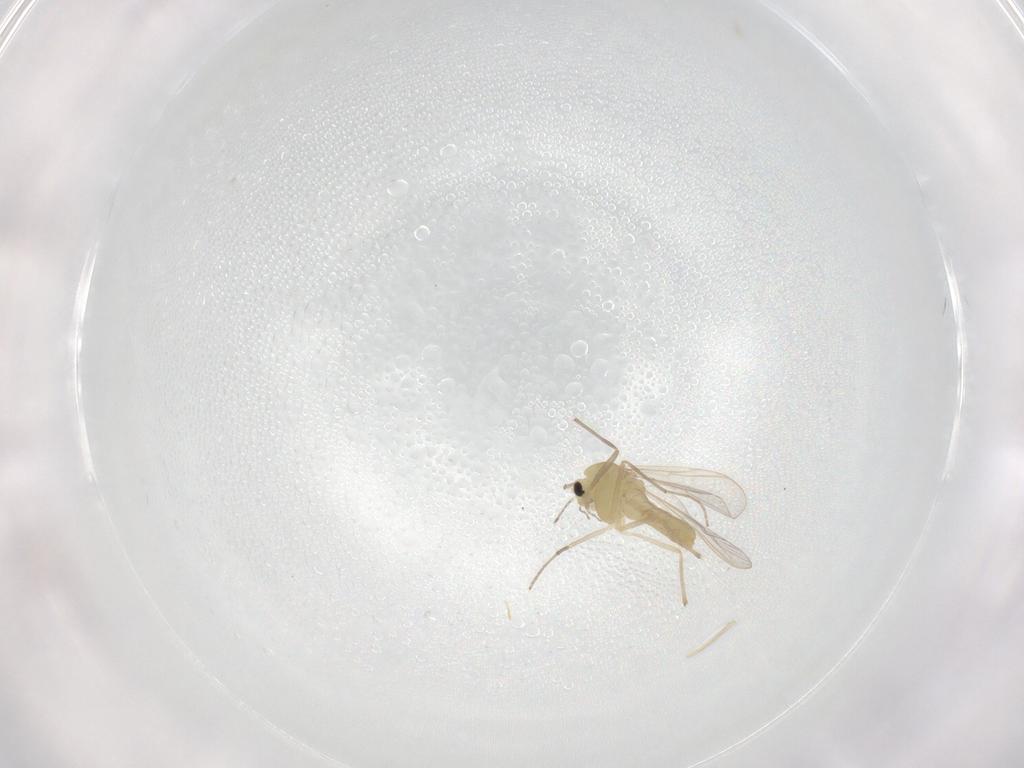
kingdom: Animalia
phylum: Arthropoda
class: Insecta
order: Diptera
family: Chironomidae
